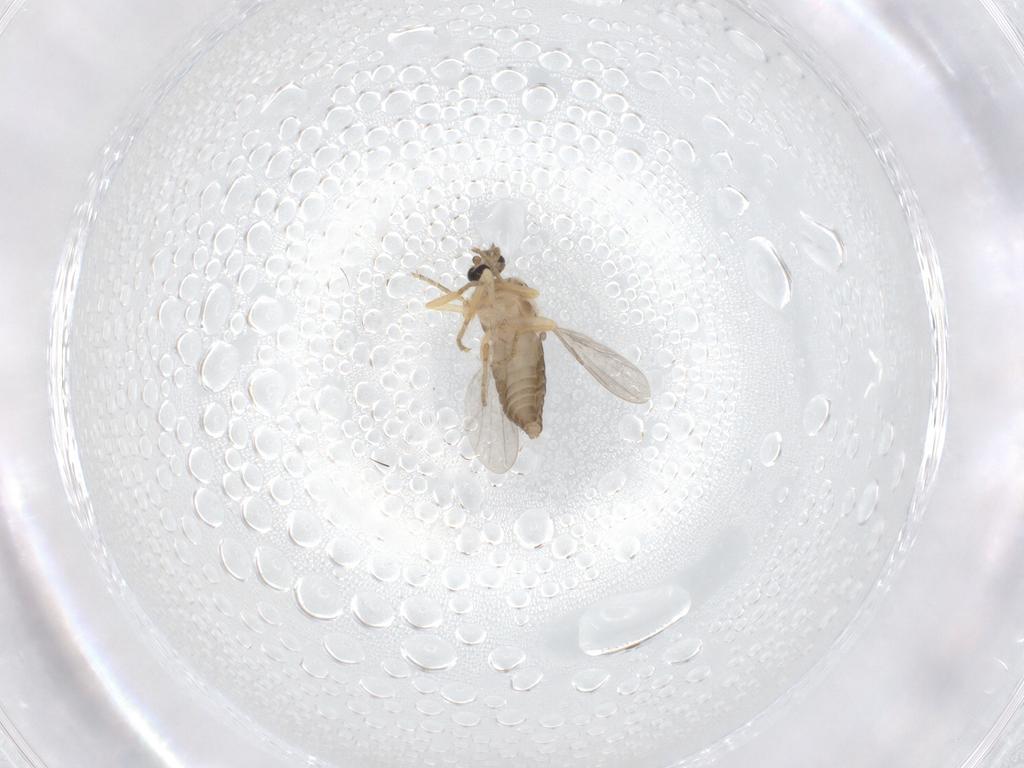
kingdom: Animalia
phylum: Arthropoda
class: Insecta
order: Diptera
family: Ceratopogonidae
